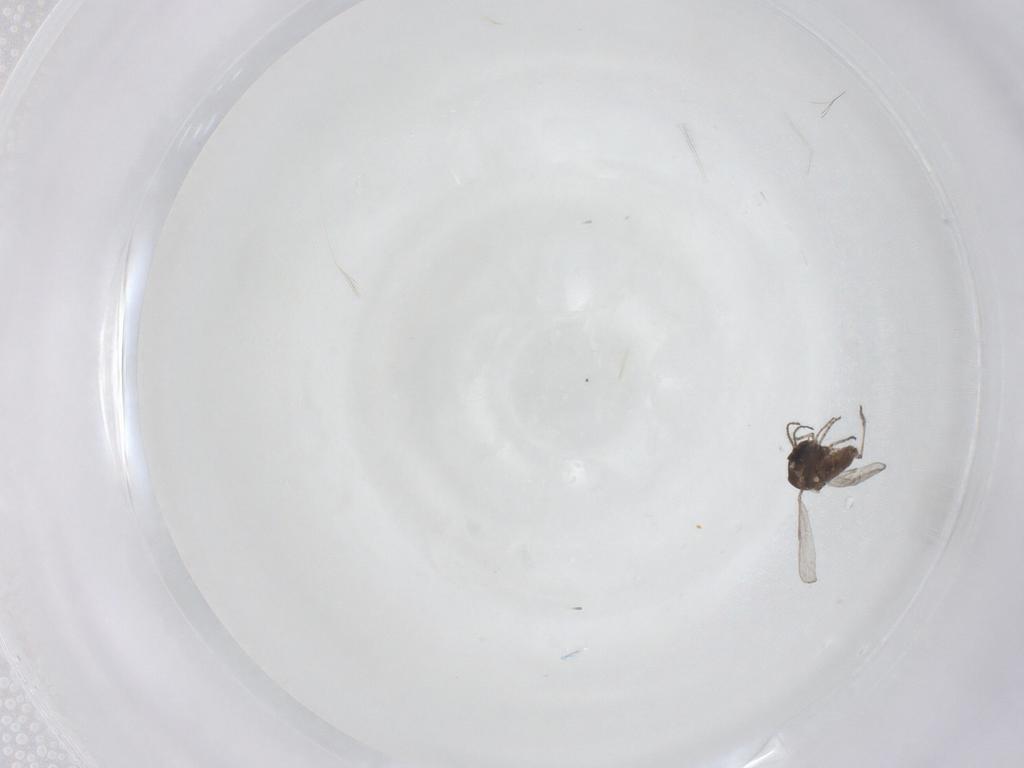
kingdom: Animalia
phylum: Arthropoda
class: Insecta
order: Diptera
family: Ceratopogonidae
